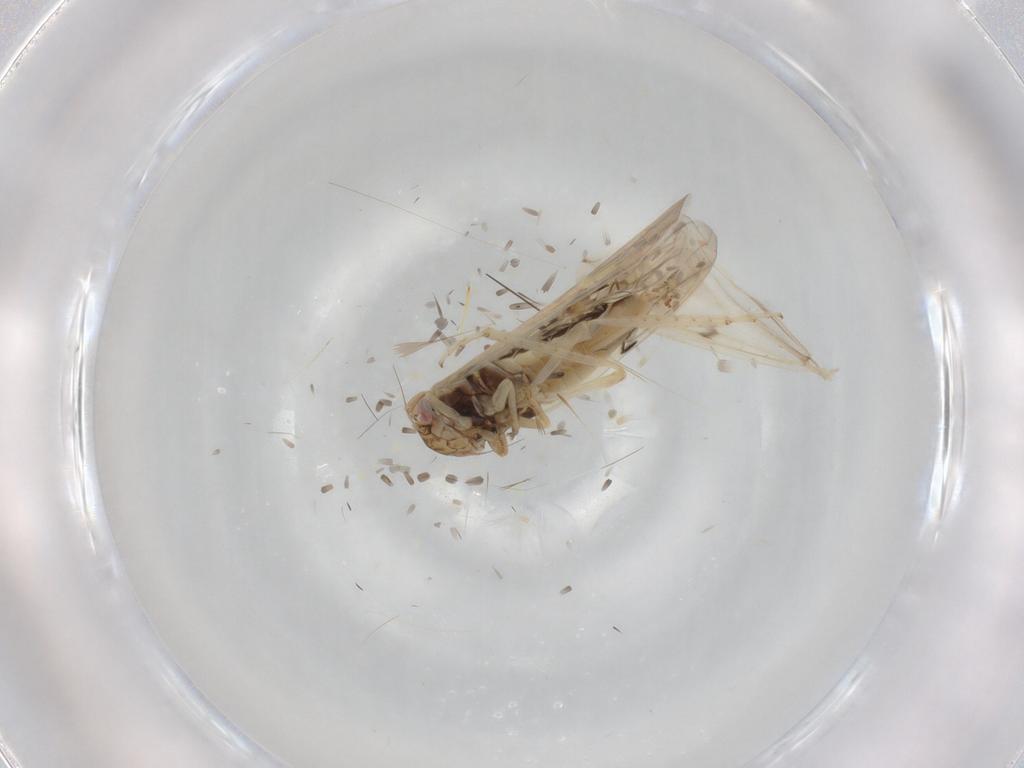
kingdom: Animalia
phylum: Arthropoda
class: Insecta
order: Hemiptera
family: Cicadellidae
